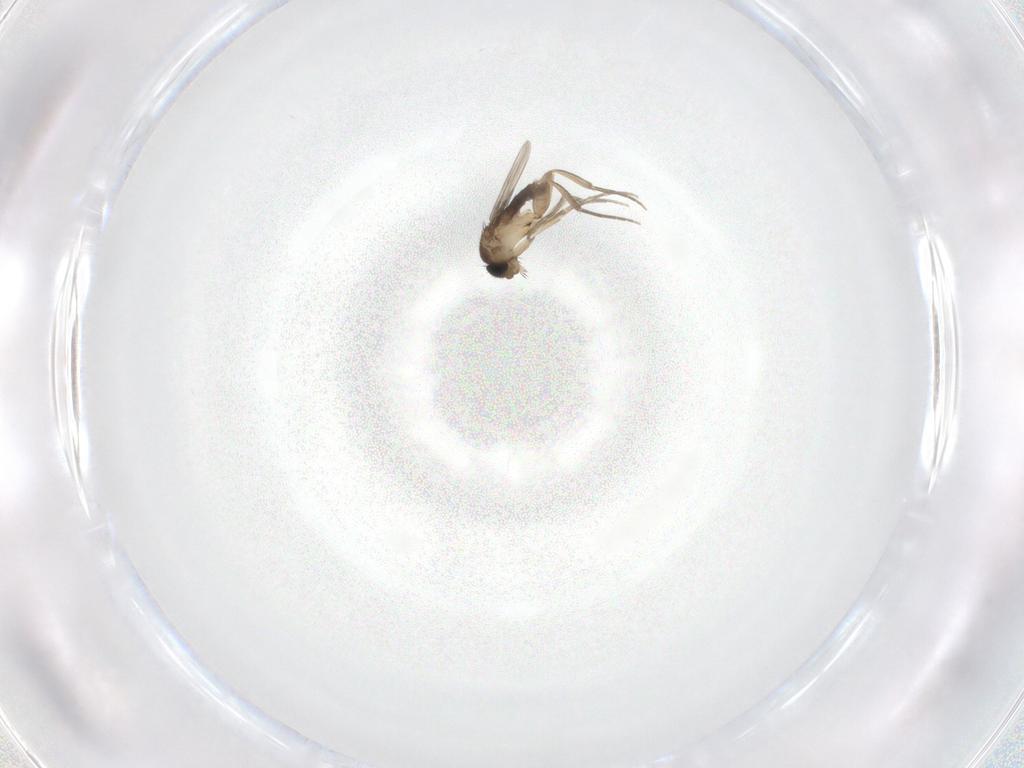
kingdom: Animalia
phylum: Arthropoda
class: Insecta
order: Diptera
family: Phoridae
